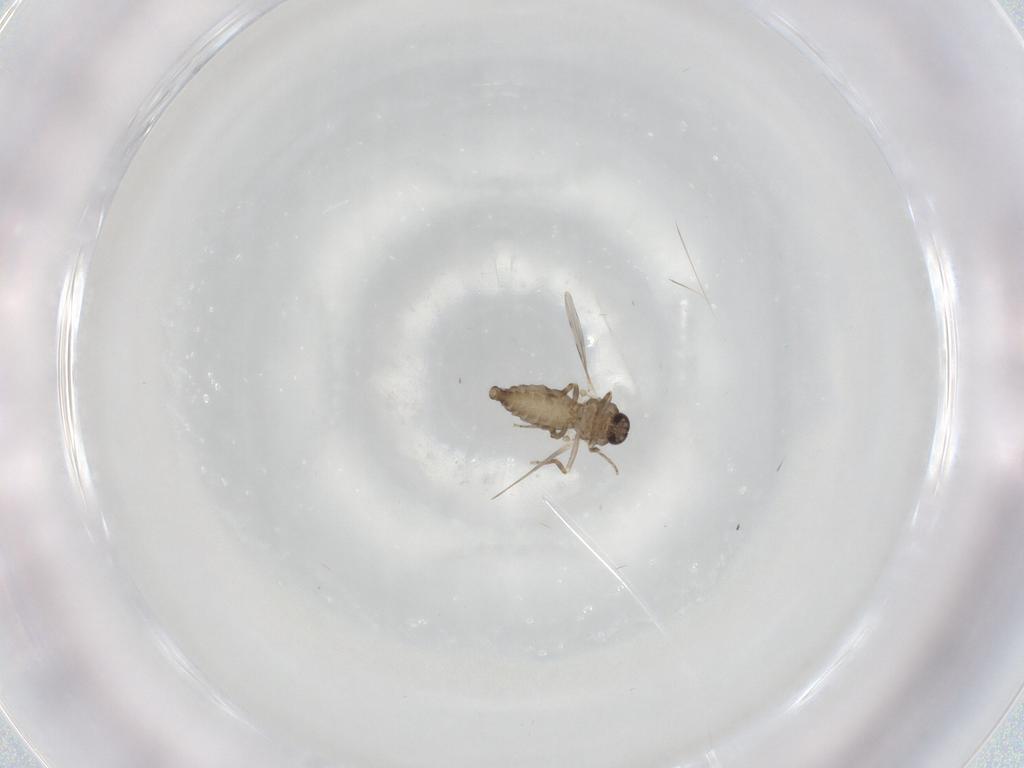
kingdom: Animalia
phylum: Arthropoda
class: Insecta
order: Diptera
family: Ceratopogonidae
